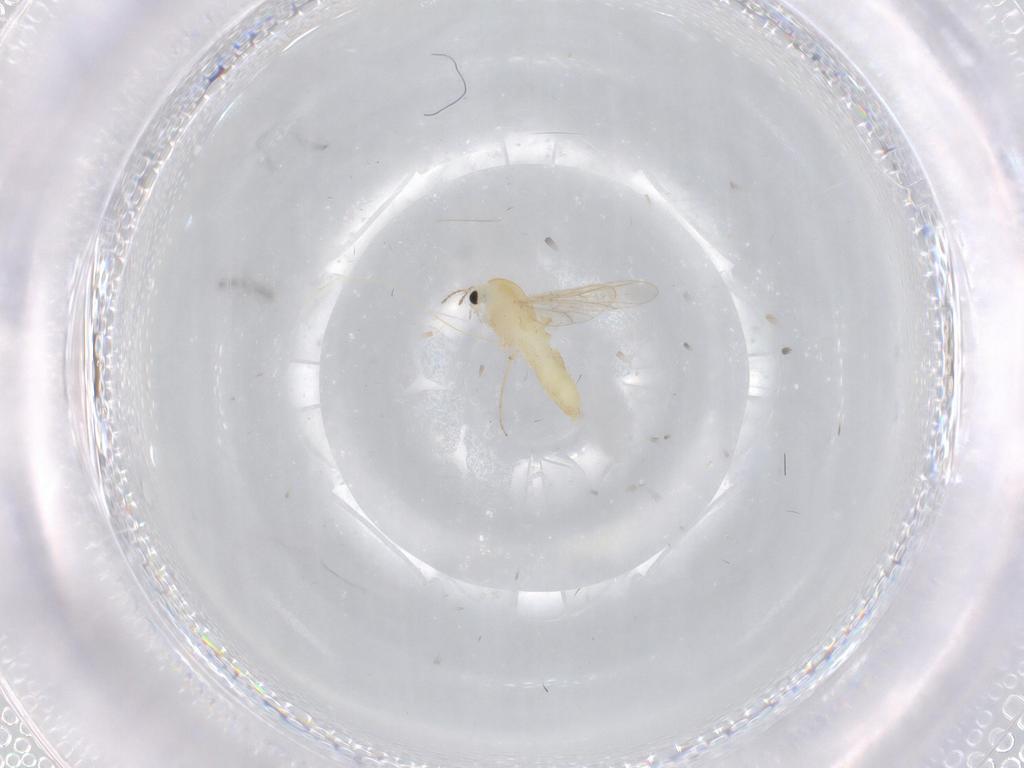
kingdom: Animalia
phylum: Arthropoda
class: Insecta
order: Diptera
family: Chironomidae
